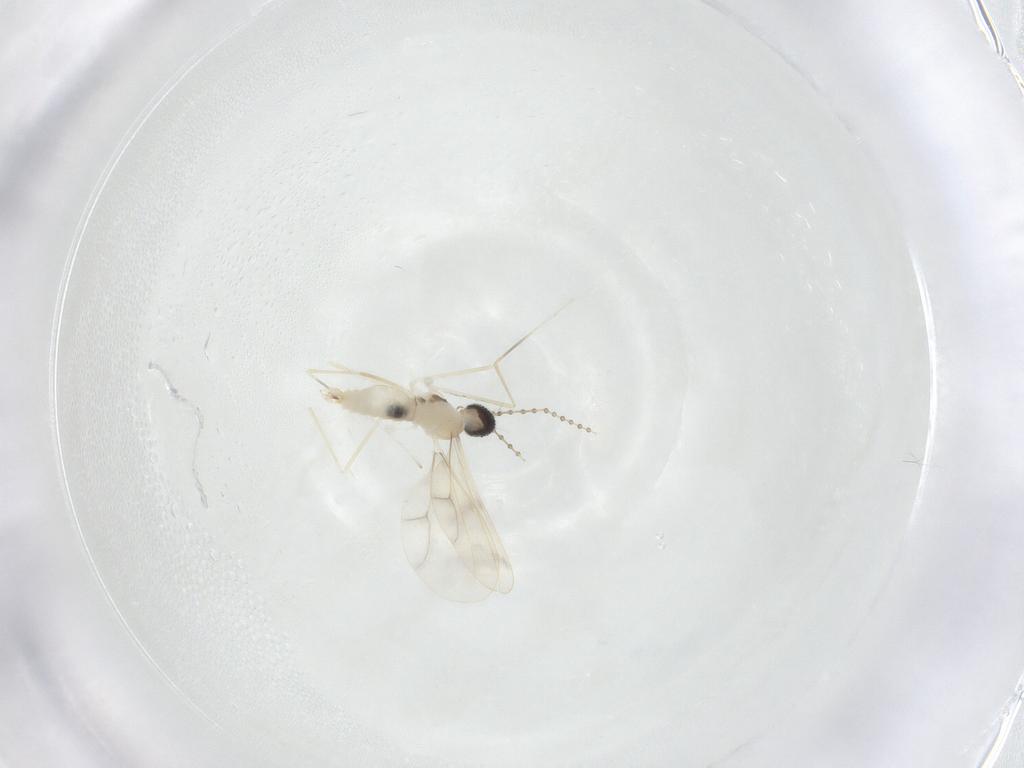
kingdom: Animalia
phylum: Arthropoda
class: Insecta
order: Diptera
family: Cecidomyiidae
